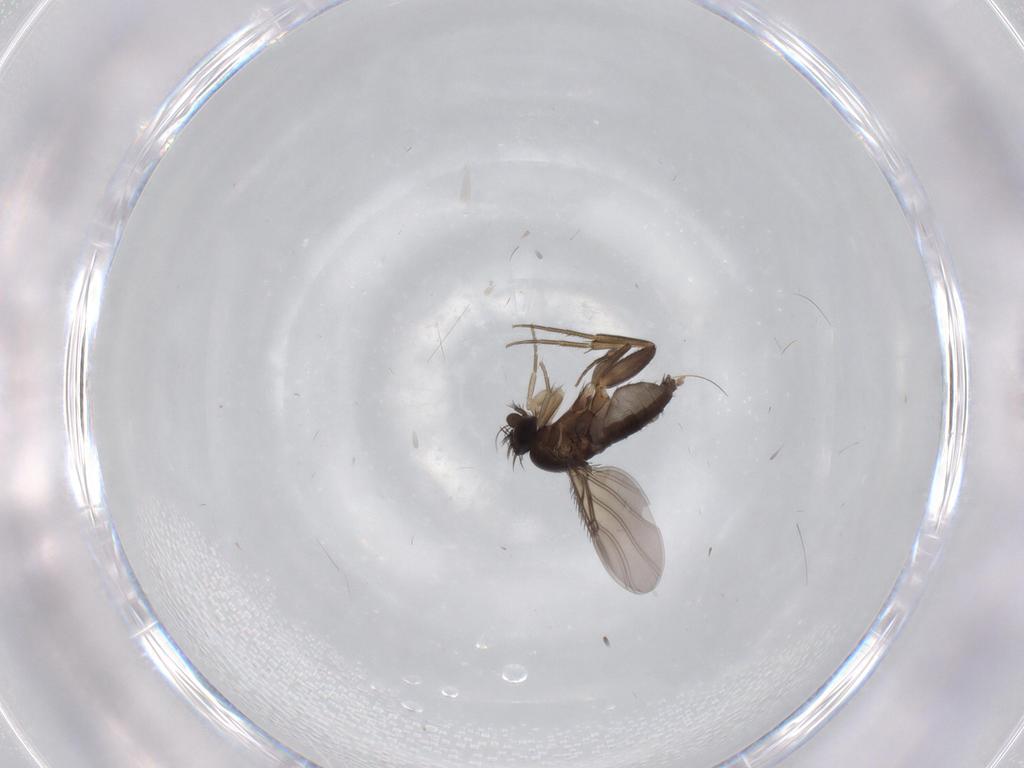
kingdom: Animalia
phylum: Arthropoda
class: Insecta
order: Diptera
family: Phoridae
